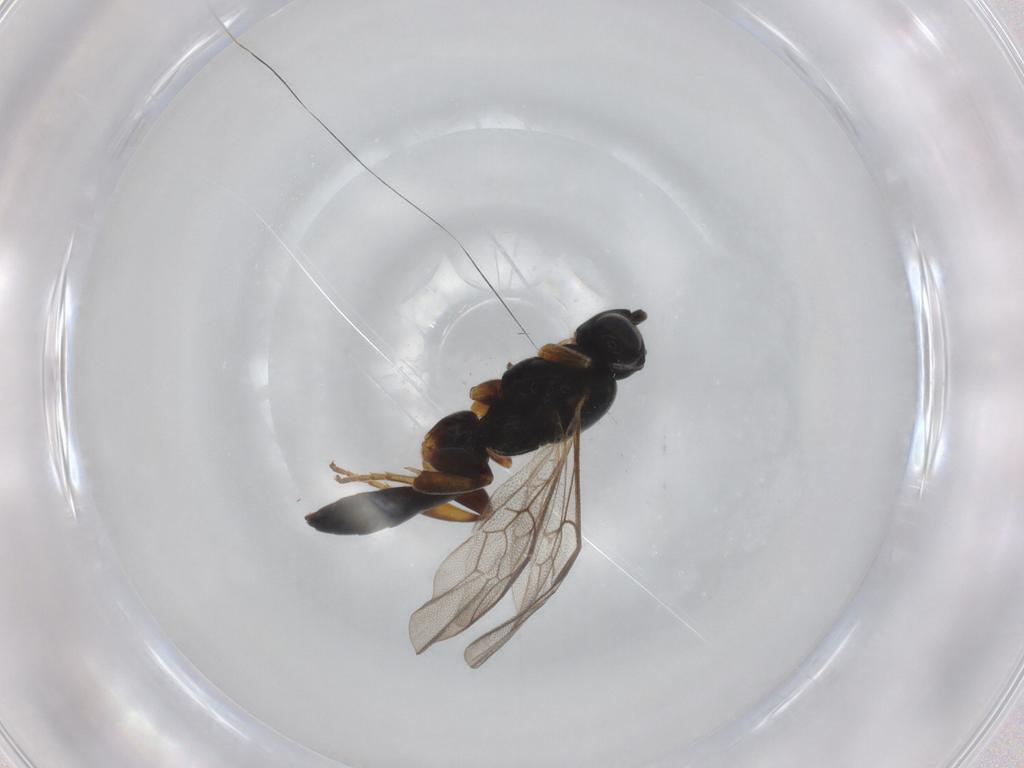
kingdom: Animalia
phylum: Arthropoda
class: Insecta
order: Hymenoptera
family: Ichneumonidae
